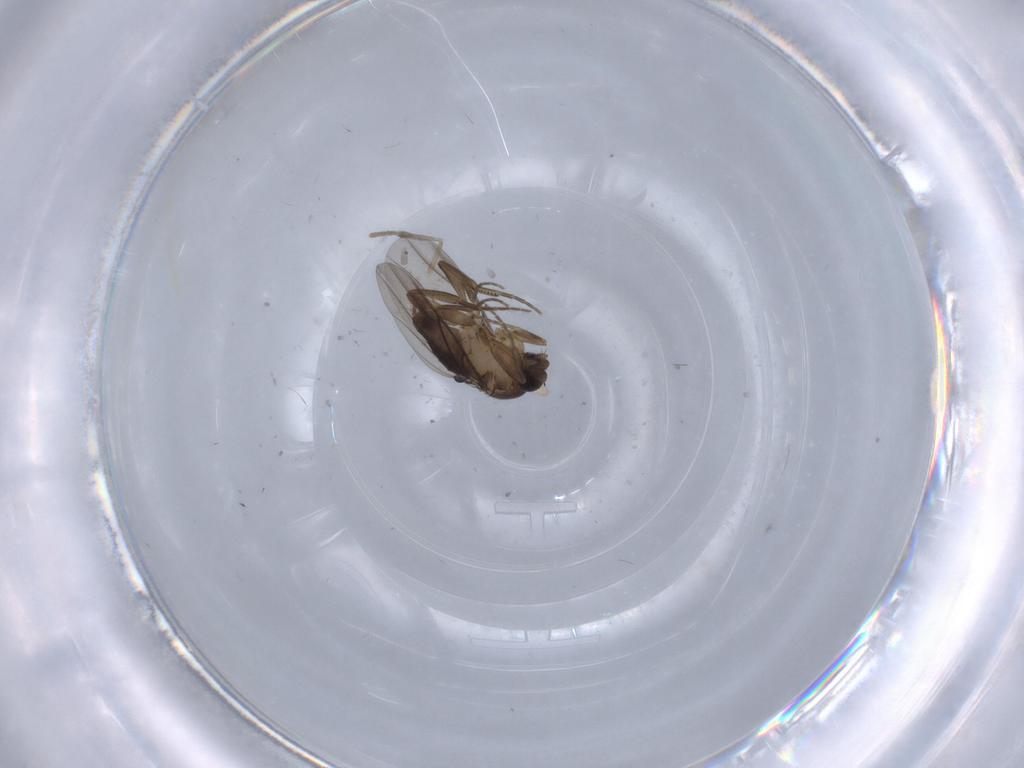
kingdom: Animalia
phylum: Arthropoda
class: Insecta
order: Diptera
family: Phoridae
